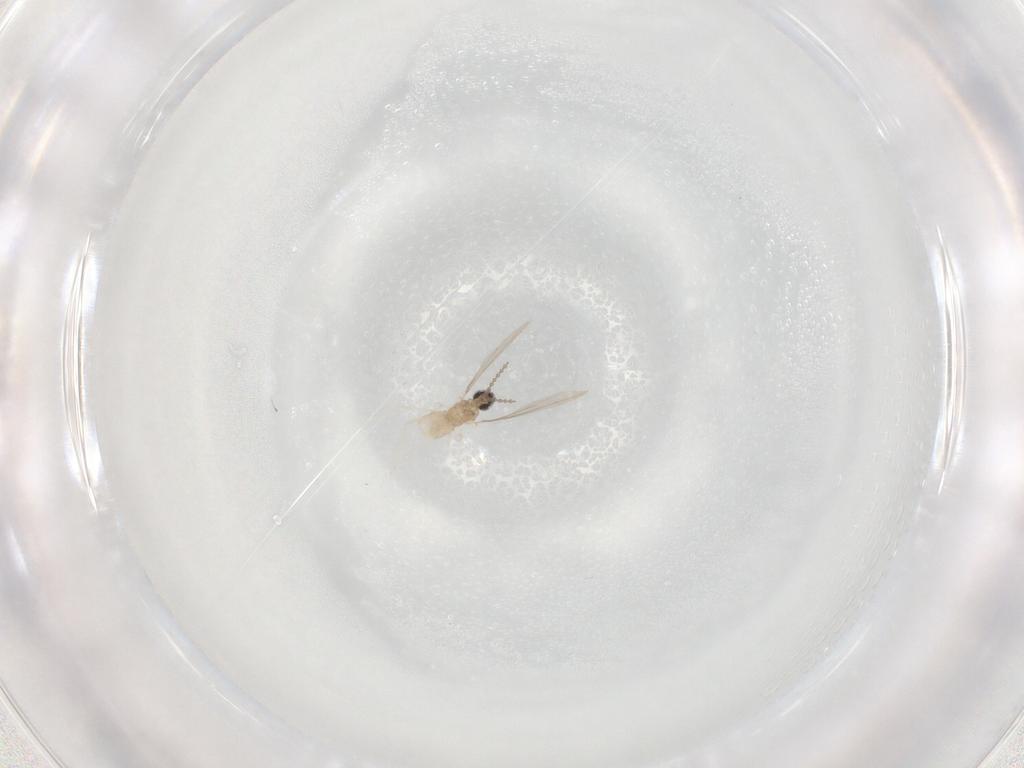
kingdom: Animalia
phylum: Arthropoda
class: Insecta
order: Diptera
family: Cecidomyiidae
